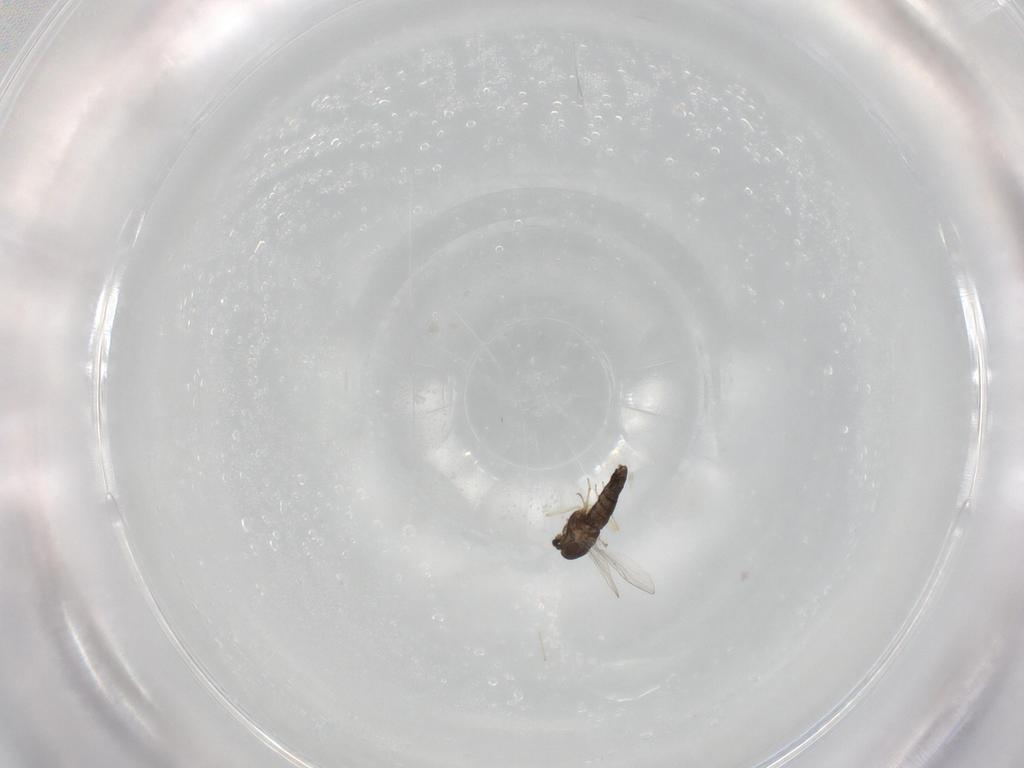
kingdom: Animalia
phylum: Arthropoda
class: Insecta
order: Diptera
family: Chironomidae
